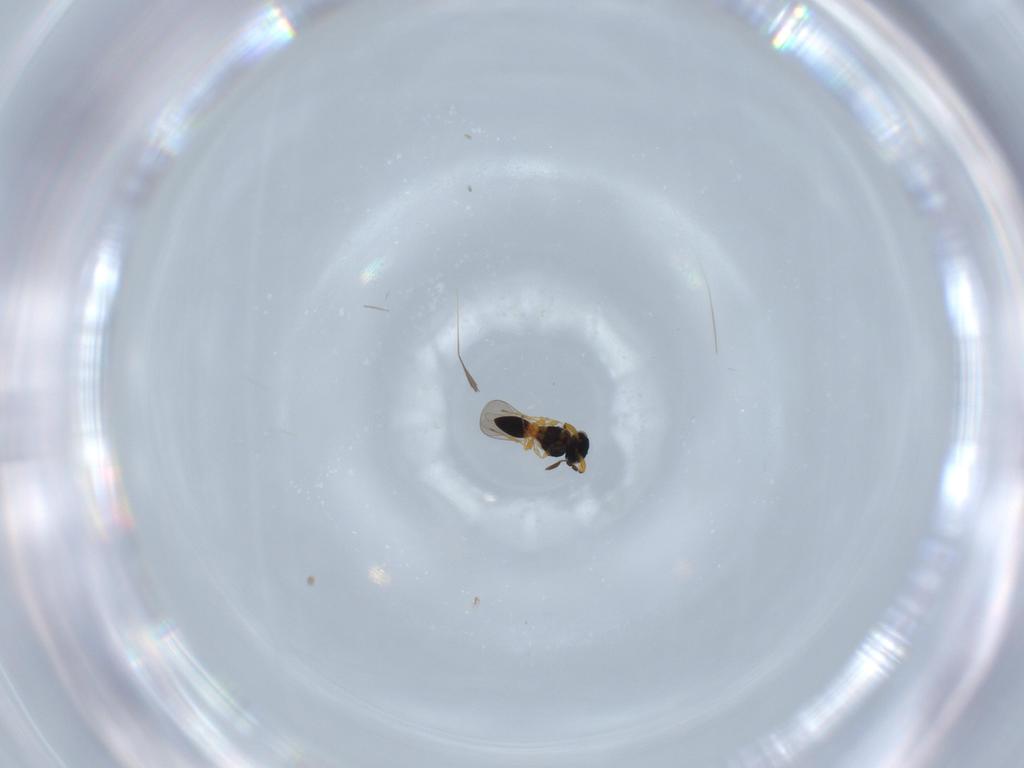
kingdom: Animalia
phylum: Arthropoda
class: Insecta
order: Hymenoptera
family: Platygastridae
